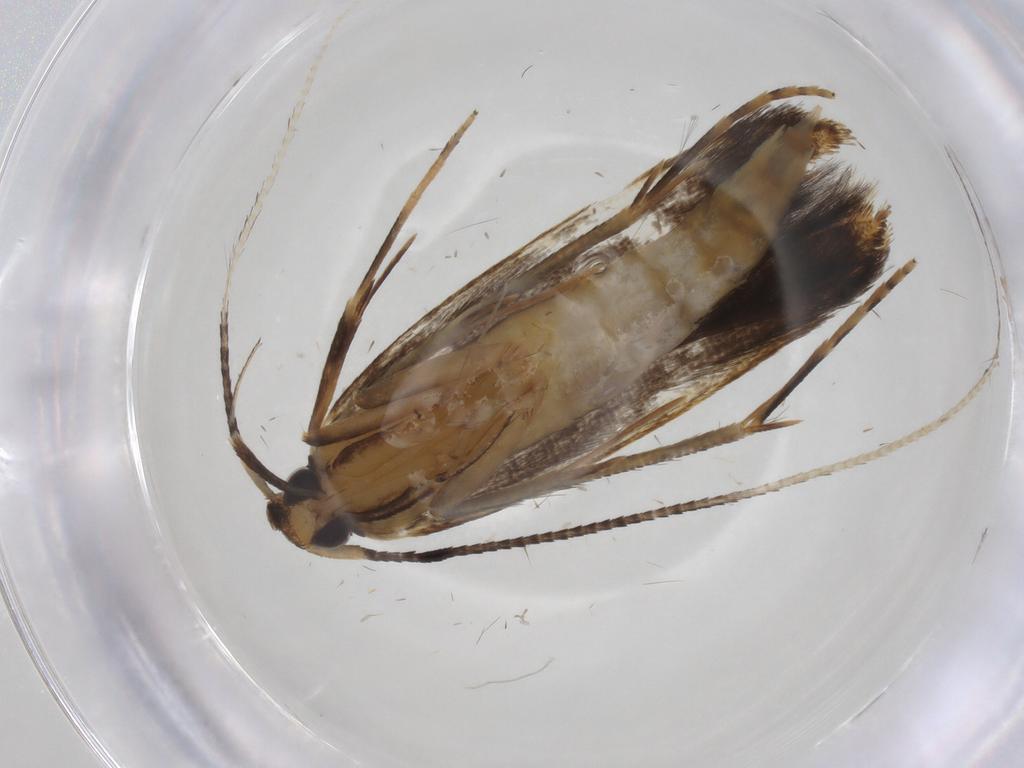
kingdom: Animalia
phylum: Arthropoda
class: Insecta
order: Lepidoptera
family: Pterolonchidae
